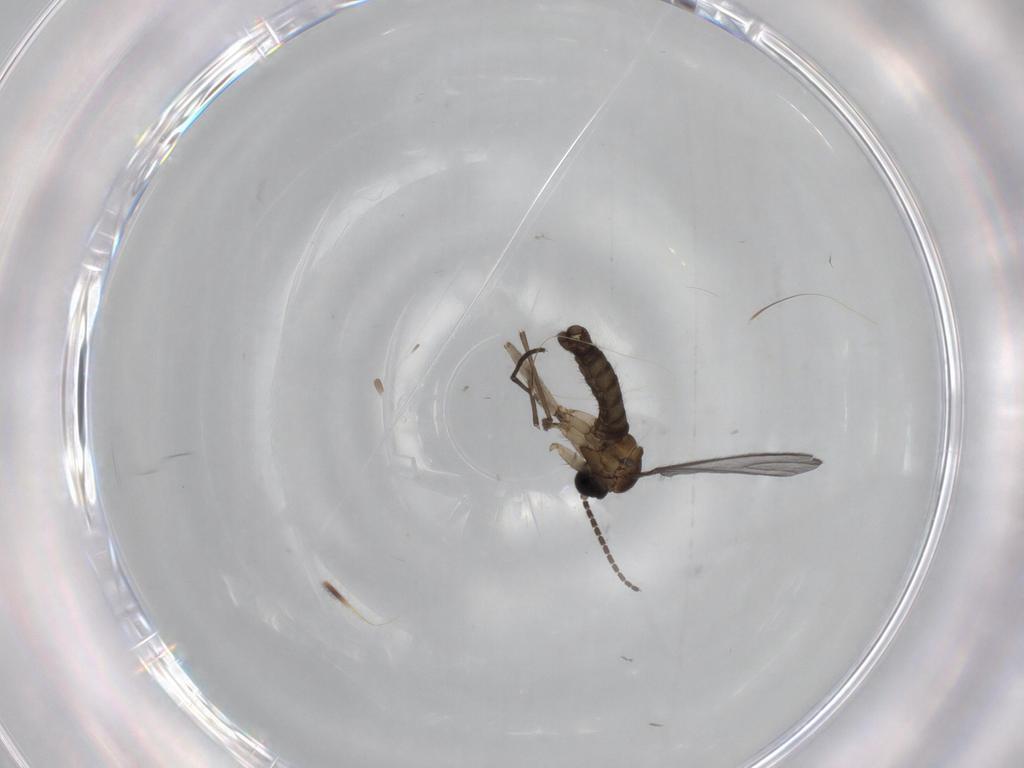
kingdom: Animalia
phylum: Arthropoda
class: Insecta
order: Diptera
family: Sciaridae
